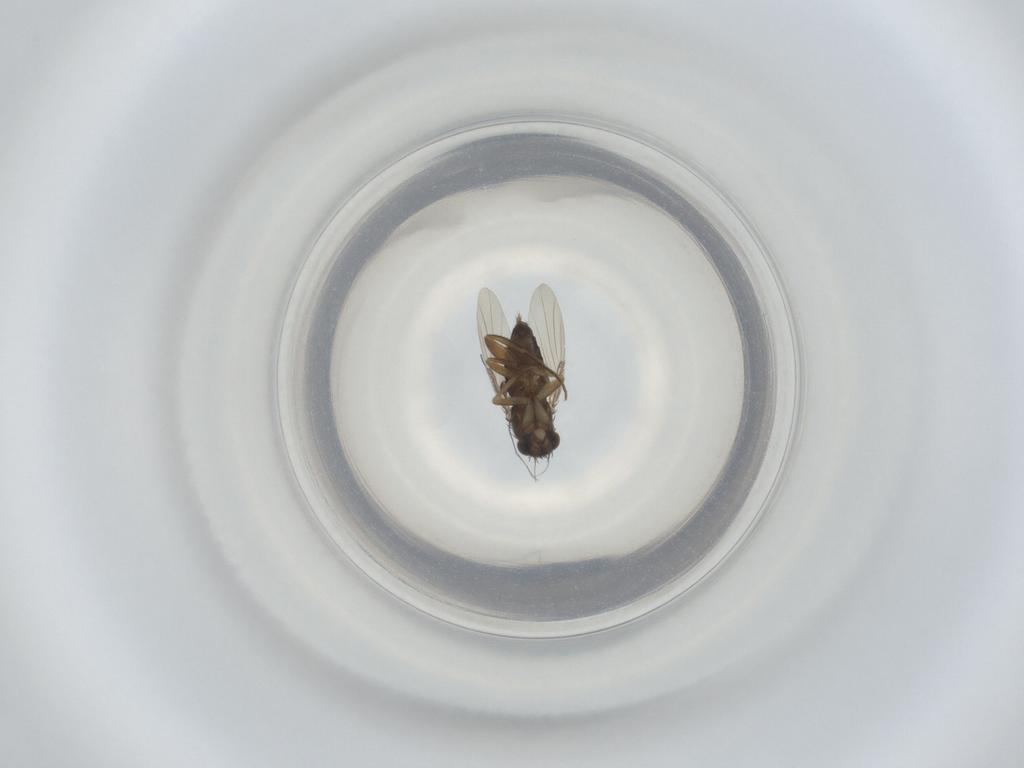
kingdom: Animalia
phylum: Arthropoda
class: Insecta
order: Diptera
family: Phoridae
